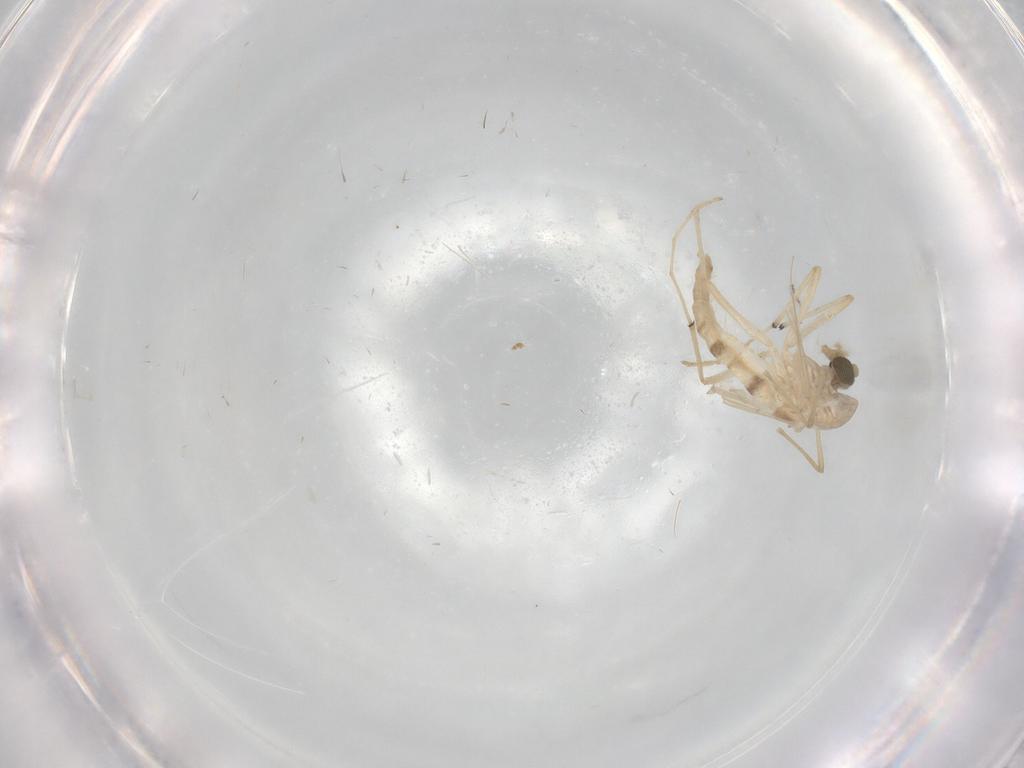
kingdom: Animalia
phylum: Arthropoda
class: Insecta
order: Diptera
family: Chironomidae
